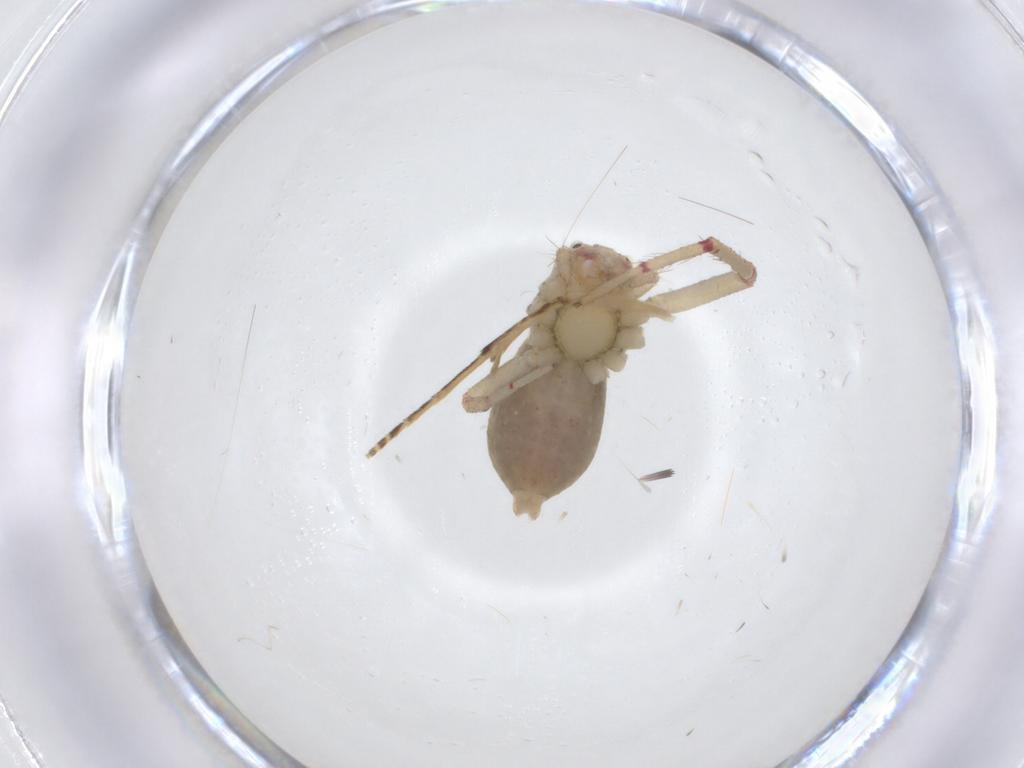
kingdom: Animalia
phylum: Arthropoda
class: Arachnida
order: Araneae
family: Thomisidae
